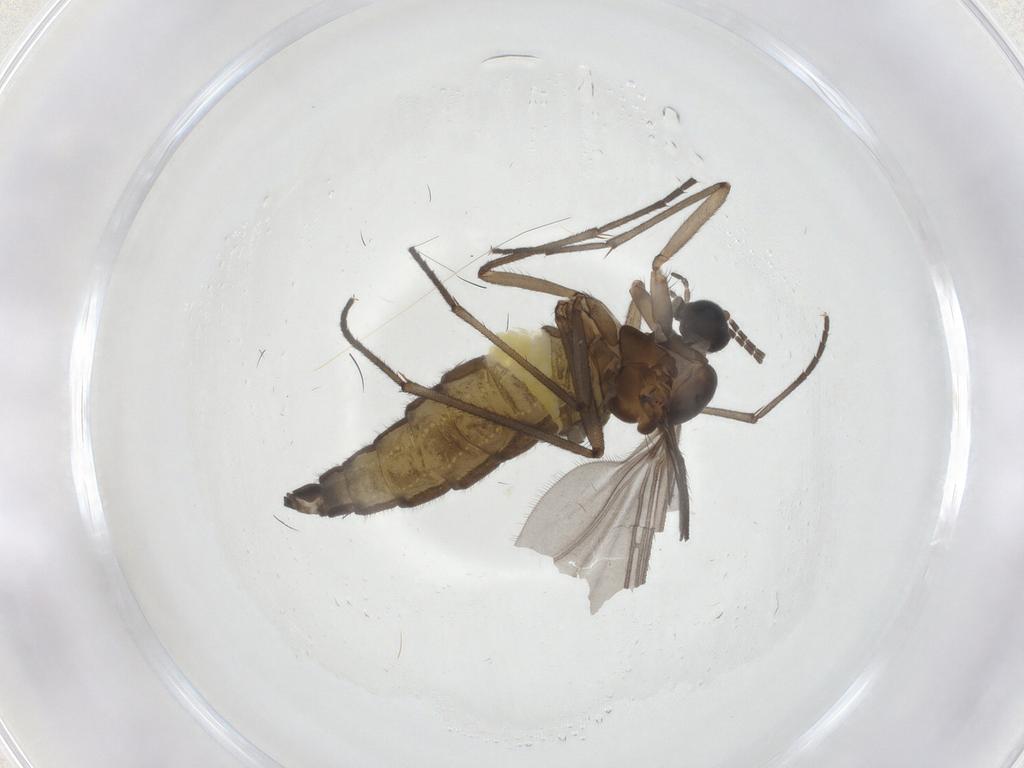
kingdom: Animalia
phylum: Arthropoda
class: Insecta
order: Diptera
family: Sciaridae
